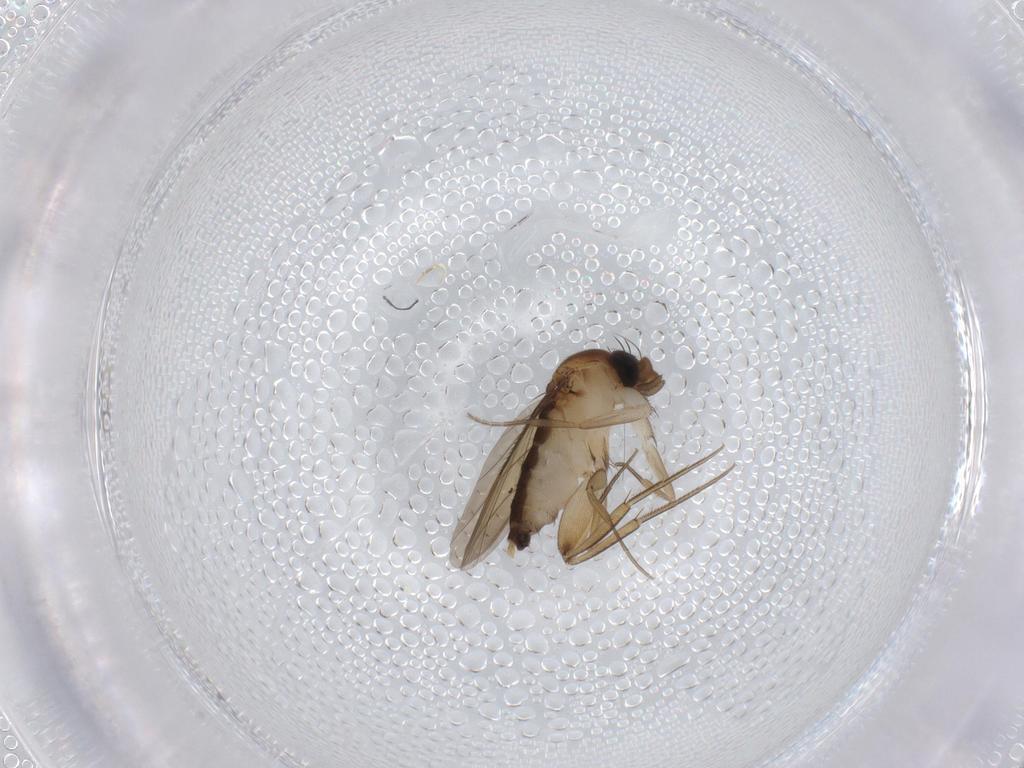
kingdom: Animalia
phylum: Arthropoda
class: Insecta
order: Diptera
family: Phoridae
